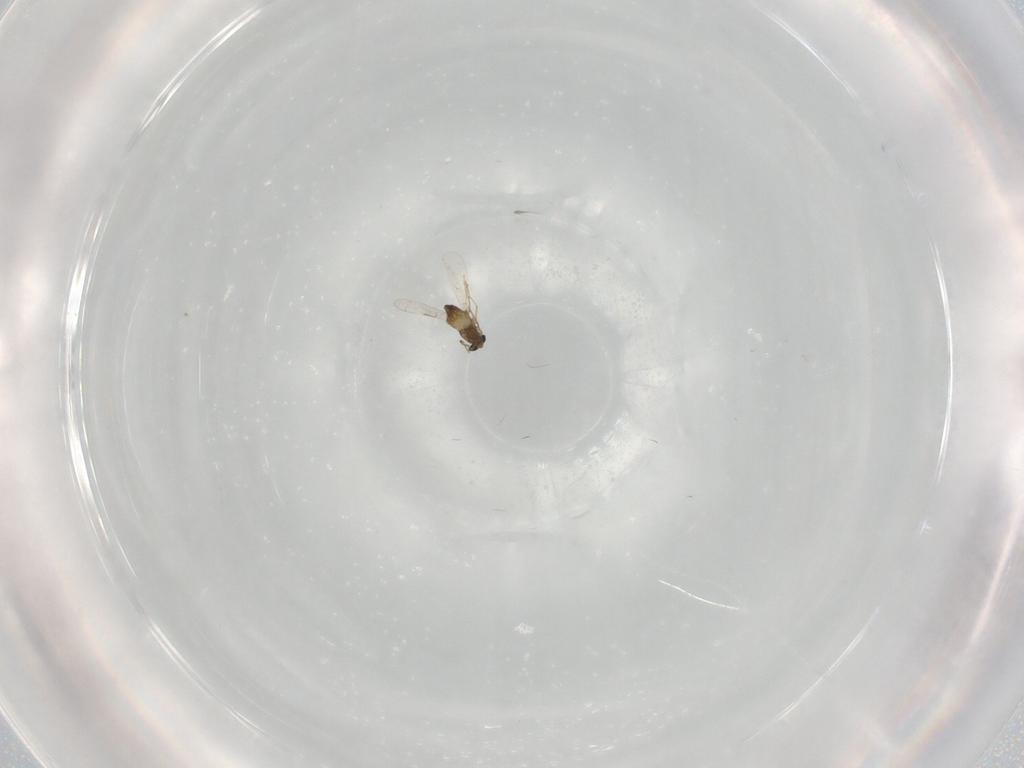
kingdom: Animalia
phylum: Arthropoda
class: Insecta
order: Diptera
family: Chironomidae
